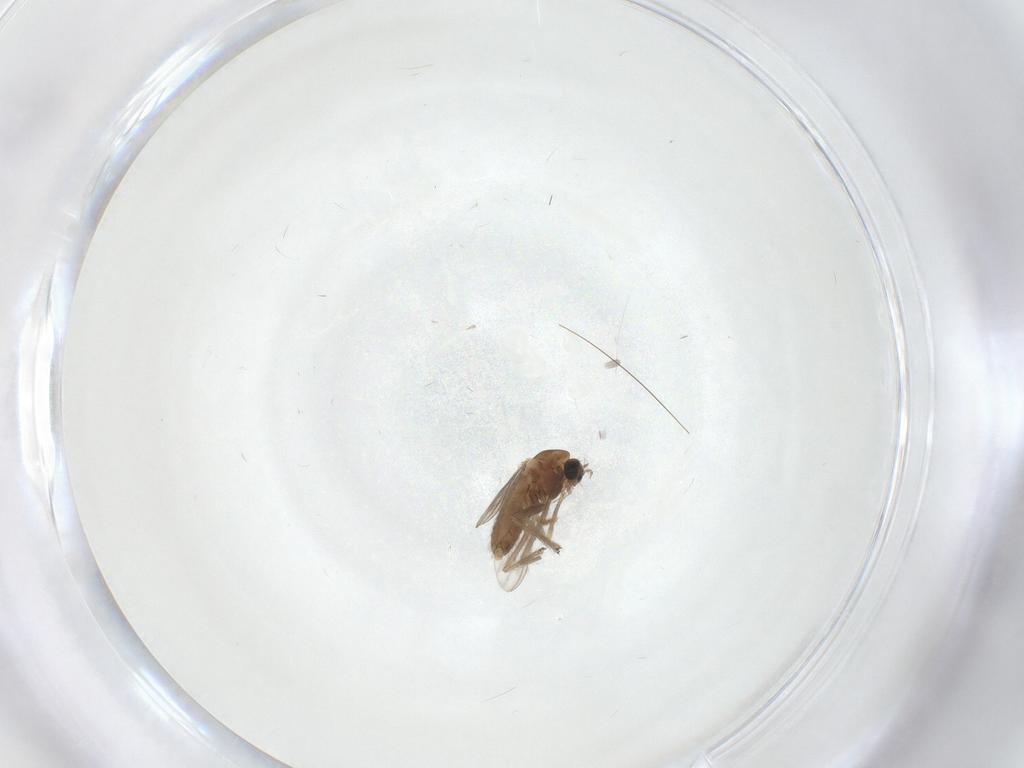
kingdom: Animalia
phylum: Arthropoda
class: Insecta
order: Diptera
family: Chironomidae
